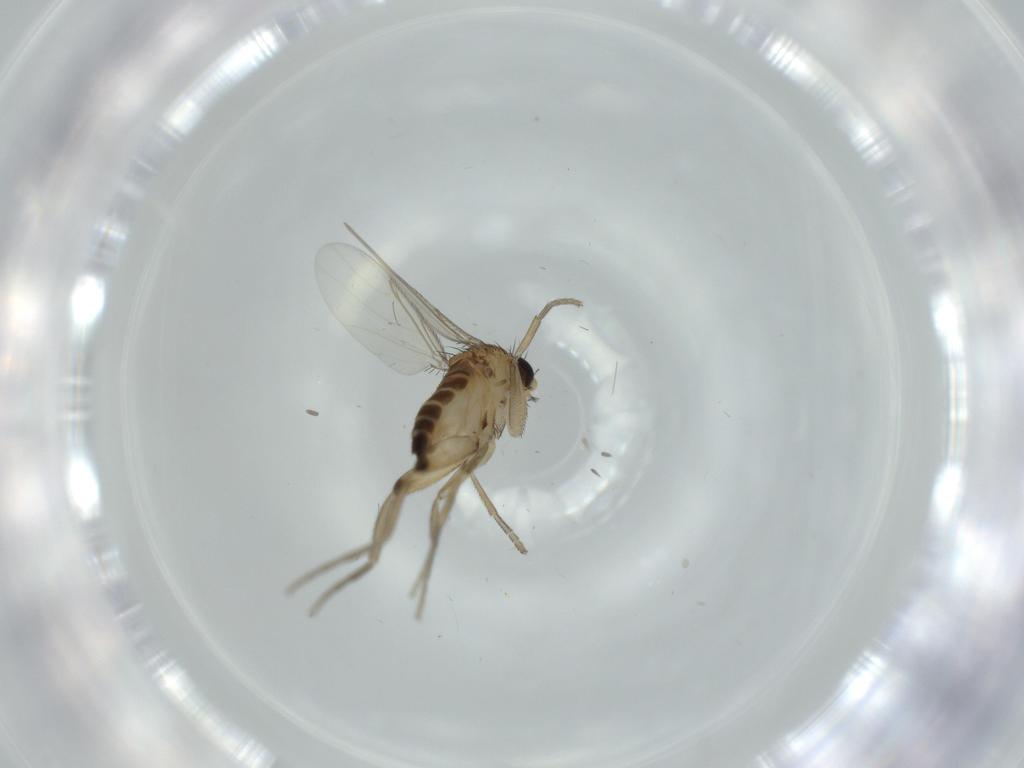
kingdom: Animalia
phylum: Arthropoda
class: Insecta
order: Diptera
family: Phoridae
